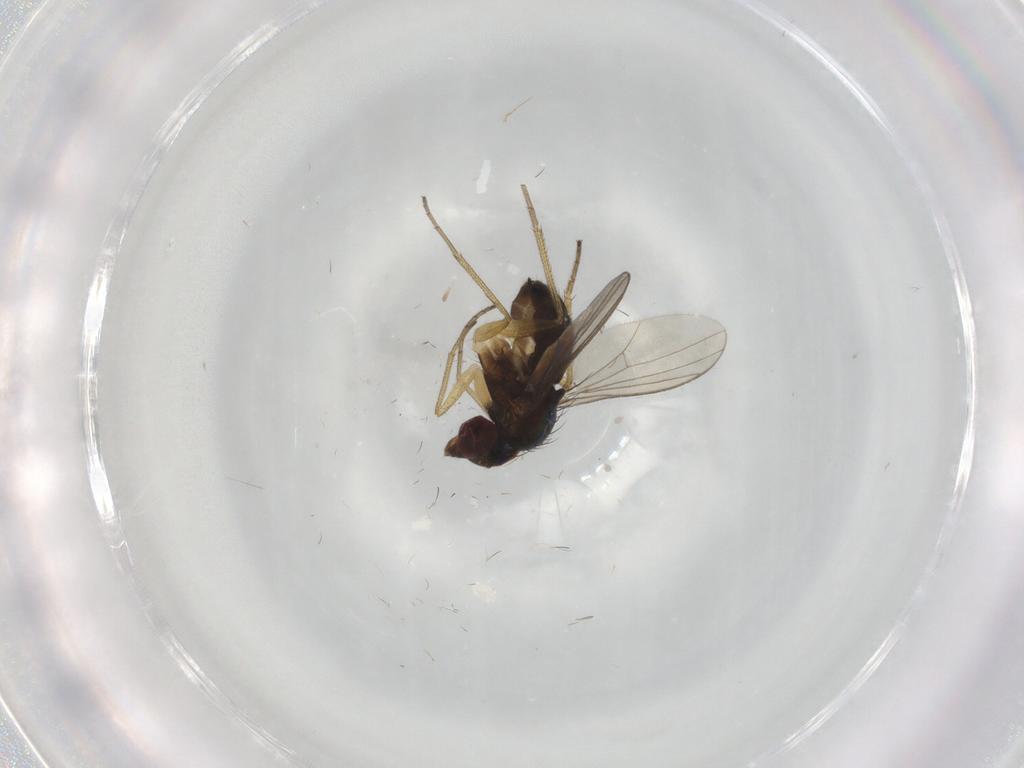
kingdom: Animalia
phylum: Arthropoda
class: Insecta
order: Diptera
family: Dolichopodidae
